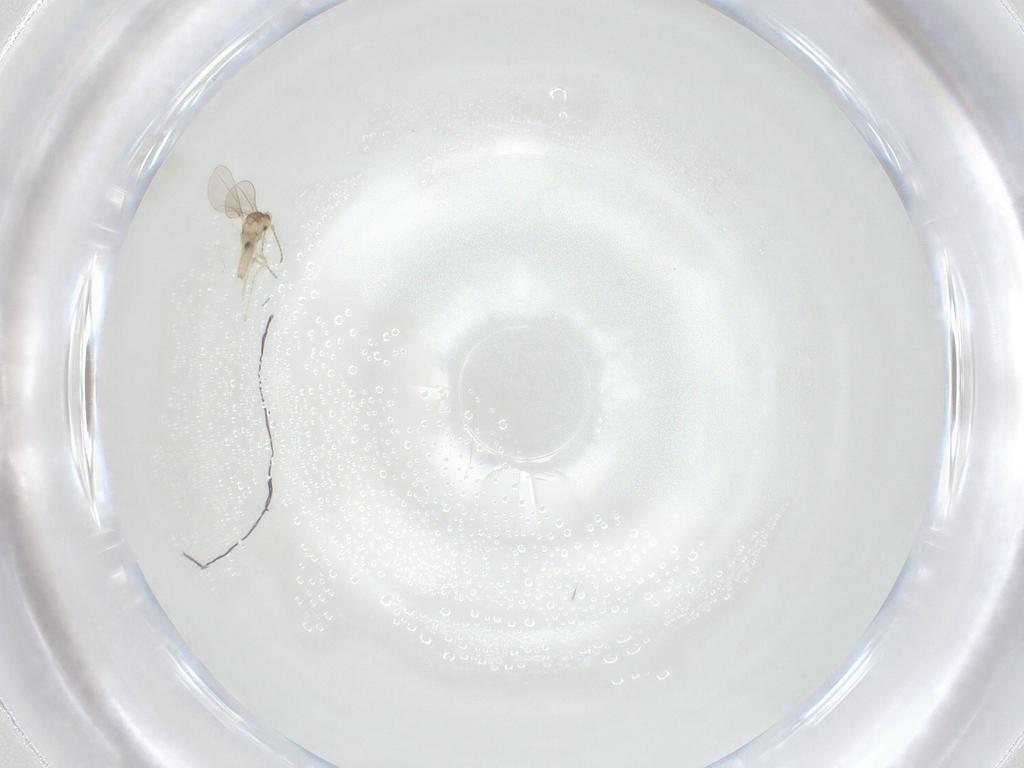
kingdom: Animalia
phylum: Arthropoda
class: Insecta
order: Diptera
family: Cecidomyiidae
